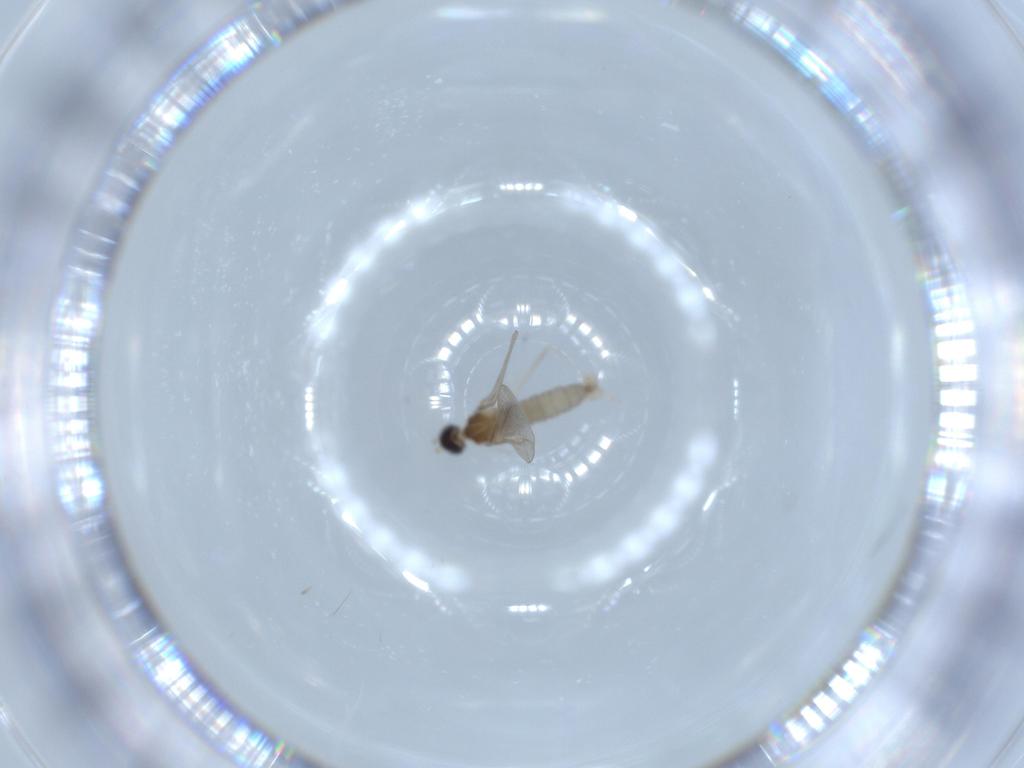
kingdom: Animalia
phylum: Arthropoda
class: Insecta
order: Diptera
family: Cecidomyiidae
